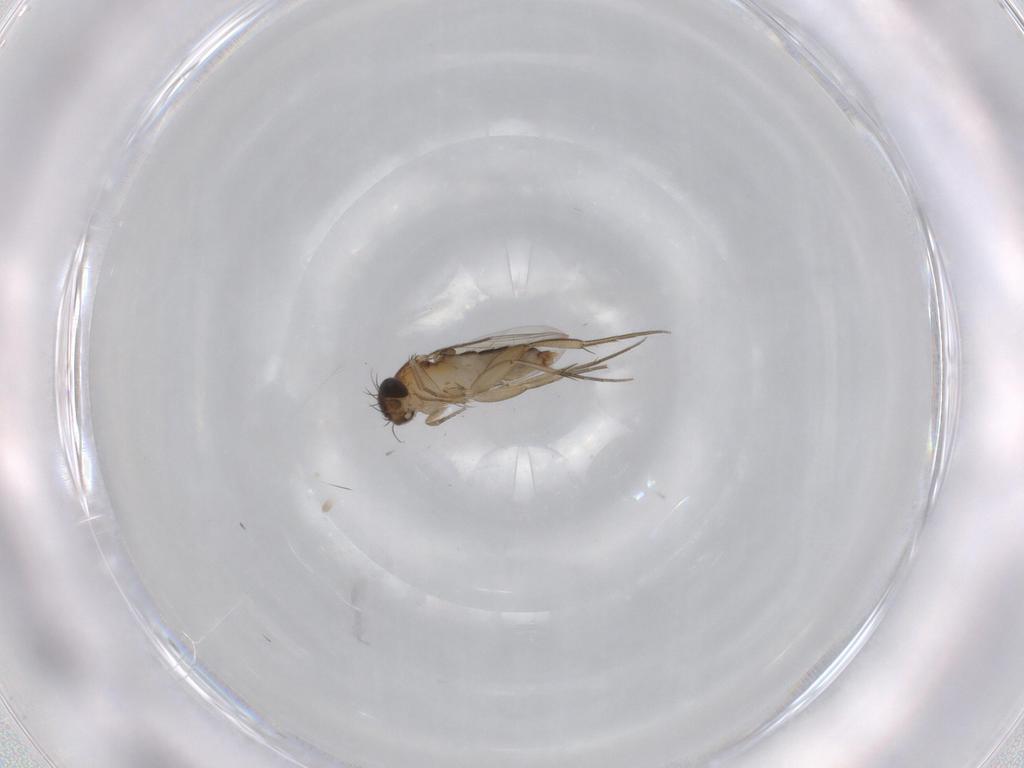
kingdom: Animalia
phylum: Arthropoda
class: Insecta
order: Diptera
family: Phoridae
